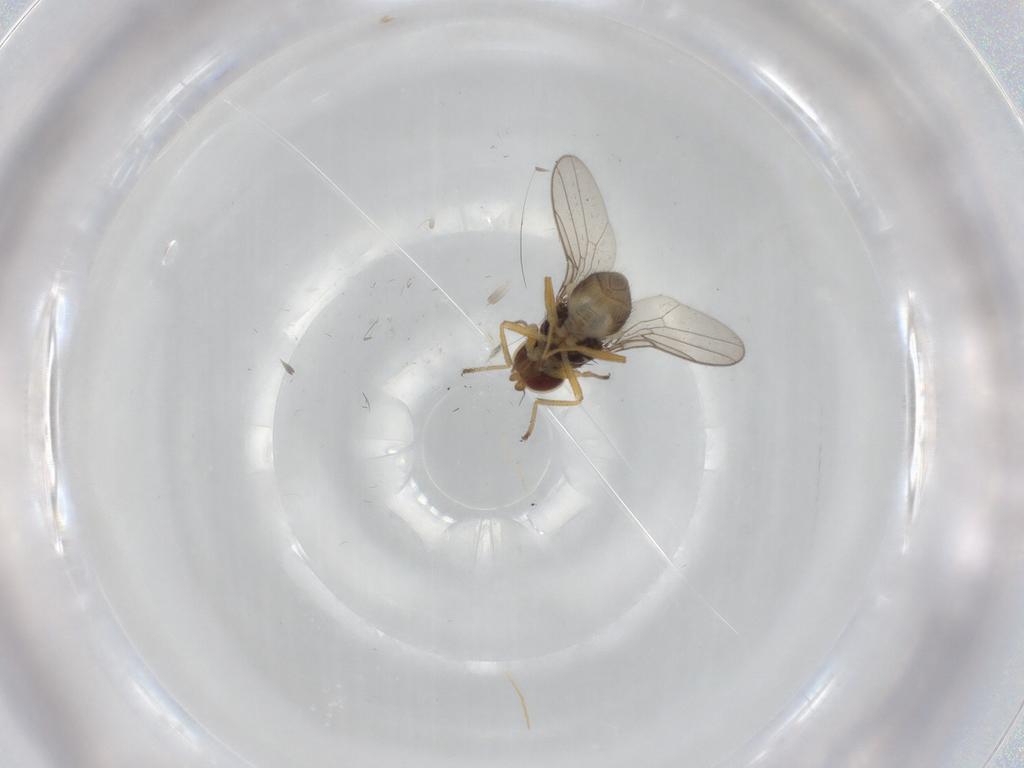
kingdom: Animalia
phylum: Arthropoda
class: Insecta
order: Diptera
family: Chloropidae
